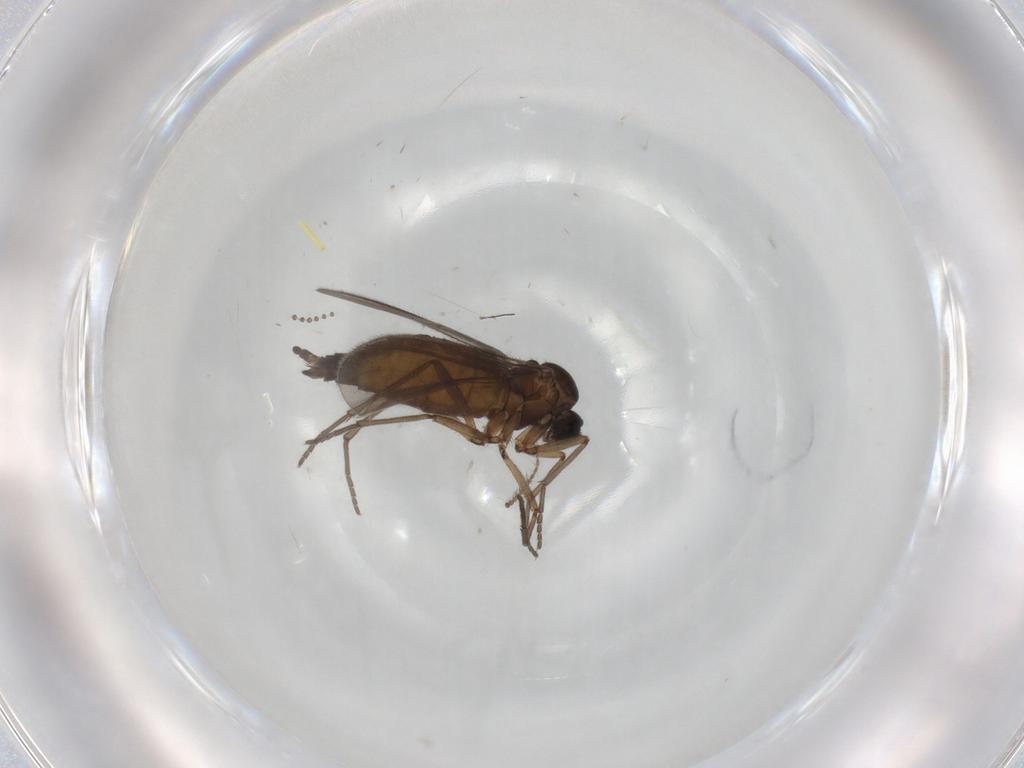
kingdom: Animalia
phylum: Arthropoda
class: Insecta
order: Diptera
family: Sciaridae
